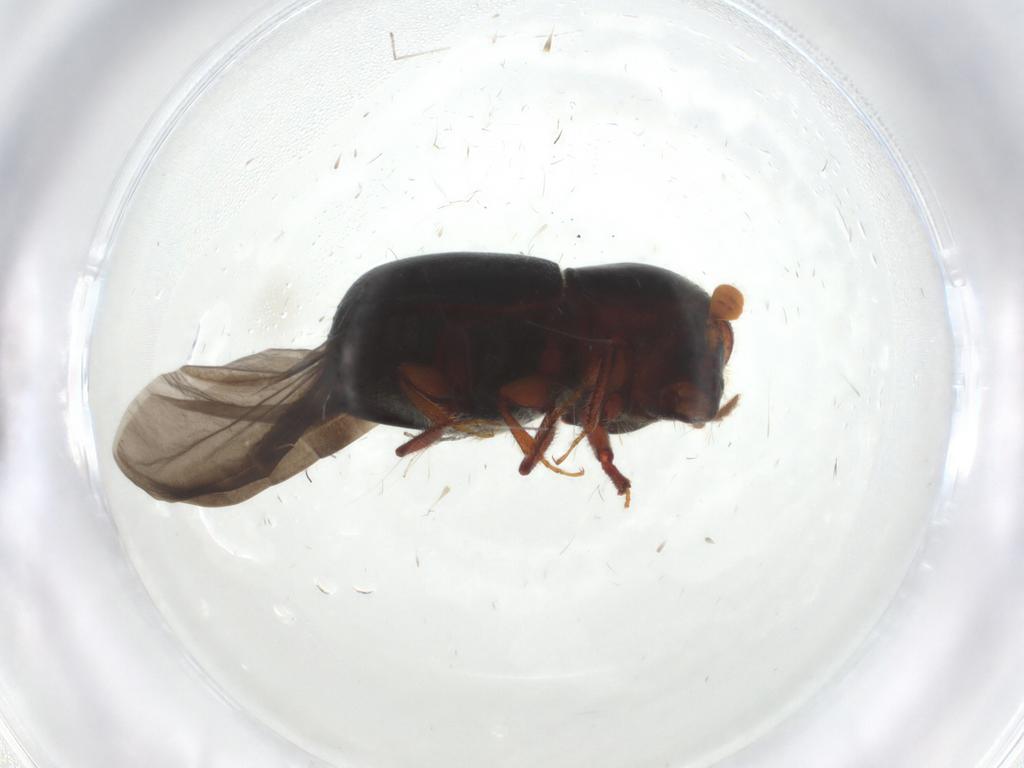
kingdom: Animalia
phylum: Arthropoda
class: Insecta
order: Coleoptera
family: Curculionidae
